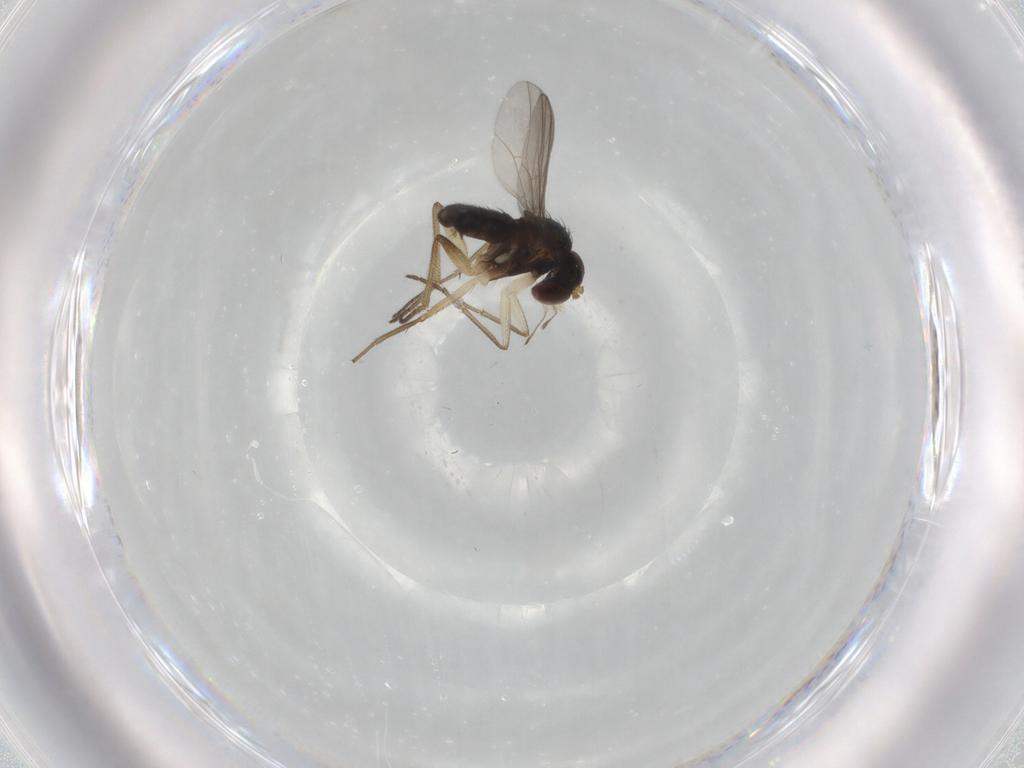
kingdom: Animalia
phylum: Arthropoda
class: Insecta
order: Diptera
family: Dolichopodidae
